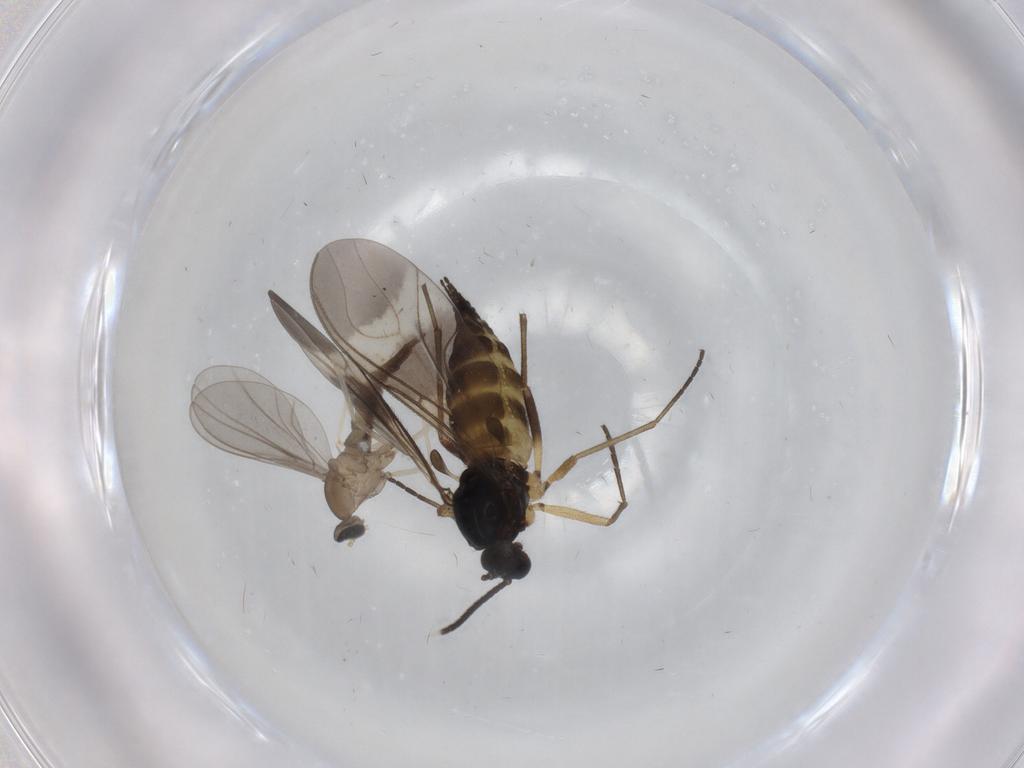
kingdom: Animalia
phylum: Arthropoda
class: Insecta
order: Diptera
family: Sciaridae
